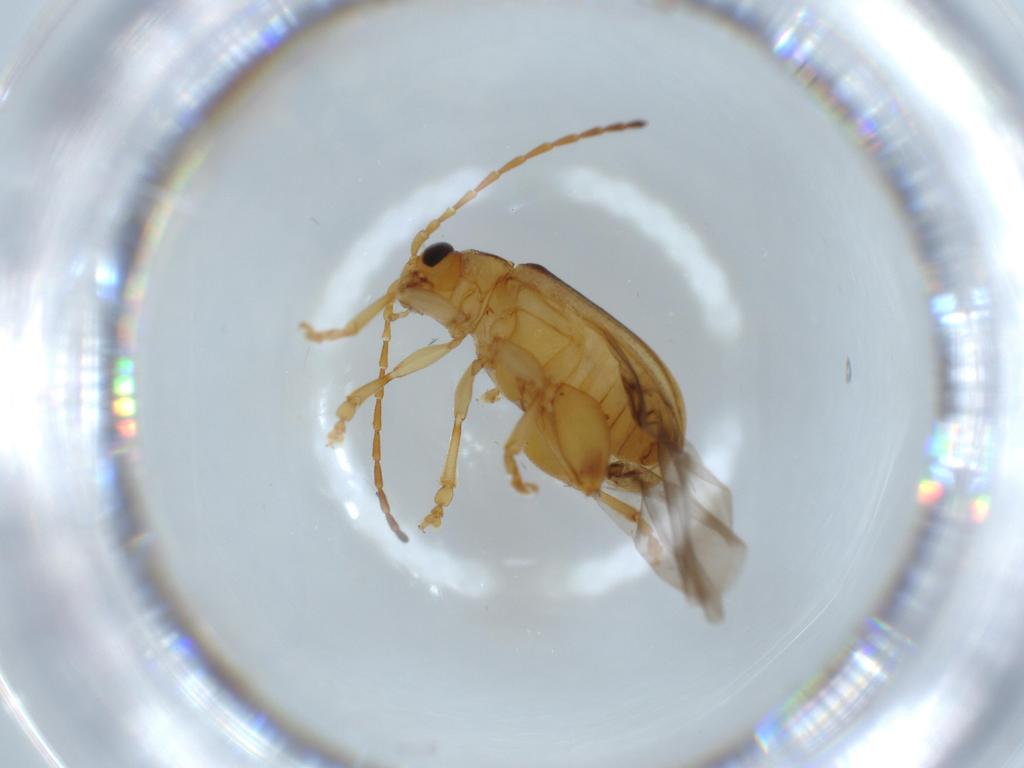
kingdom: Animalia
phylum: Arthropoda
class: Insecta
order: Coleoptera
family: Chrysomelidae
